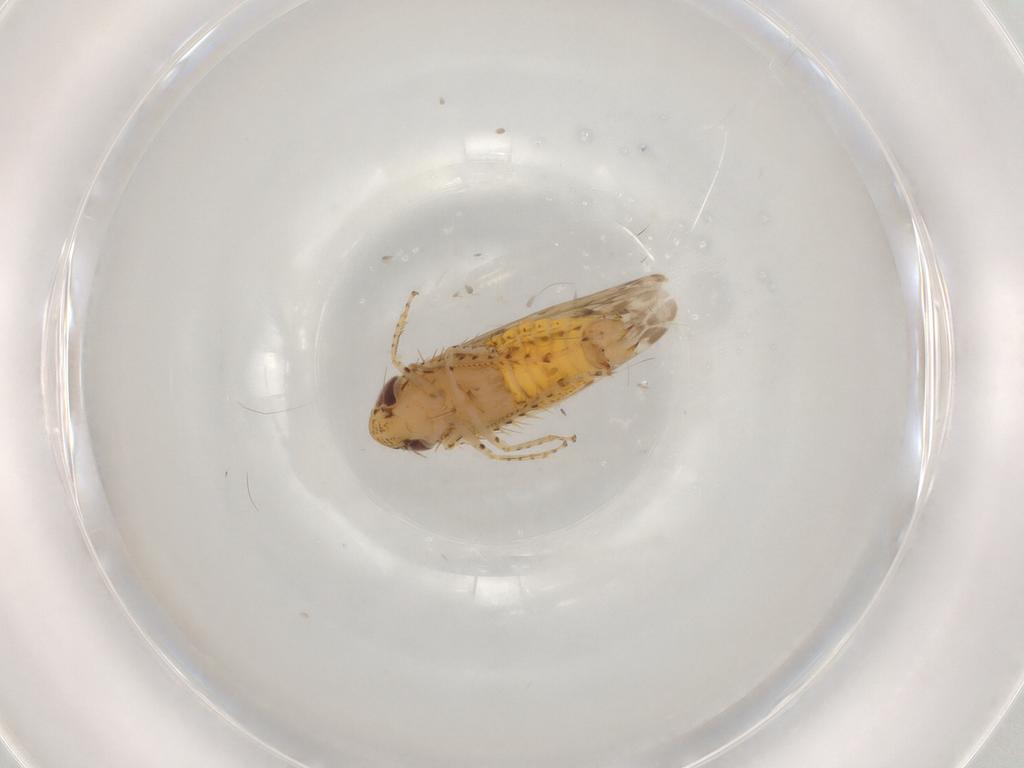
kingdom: Animalia
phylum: Arthropoda
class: Insecta
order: Hemiptera
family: Cicadellidae
